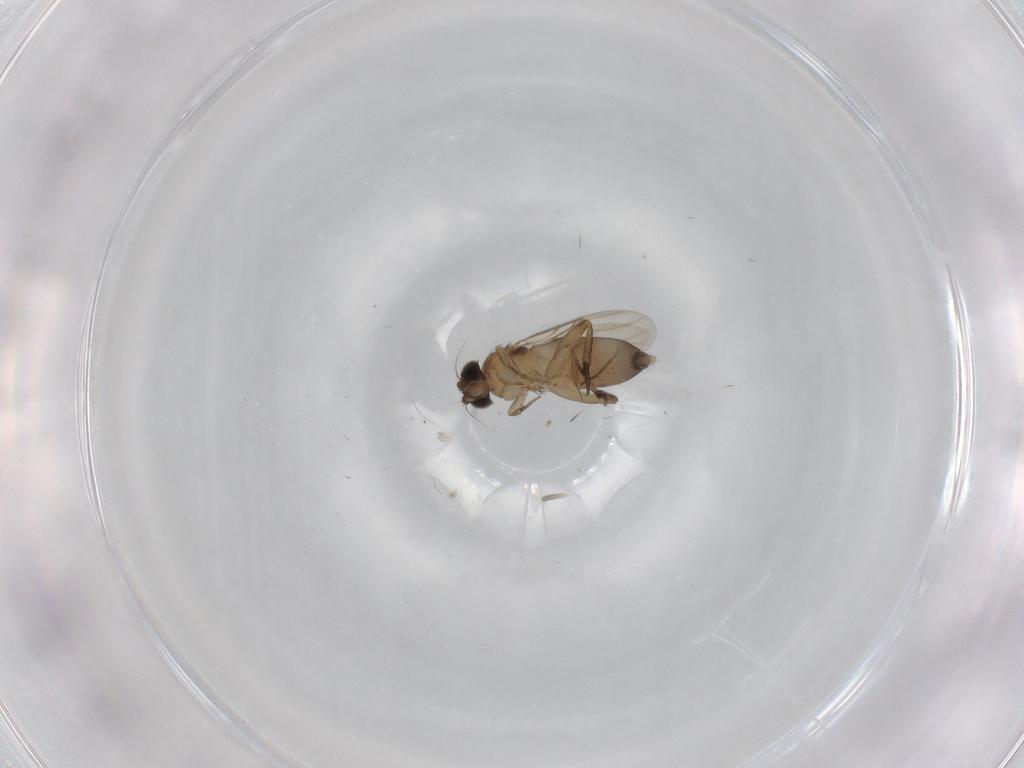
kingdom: Animalia
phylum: Arthropoda
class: Insecta
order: Diptera
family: Phoridae
